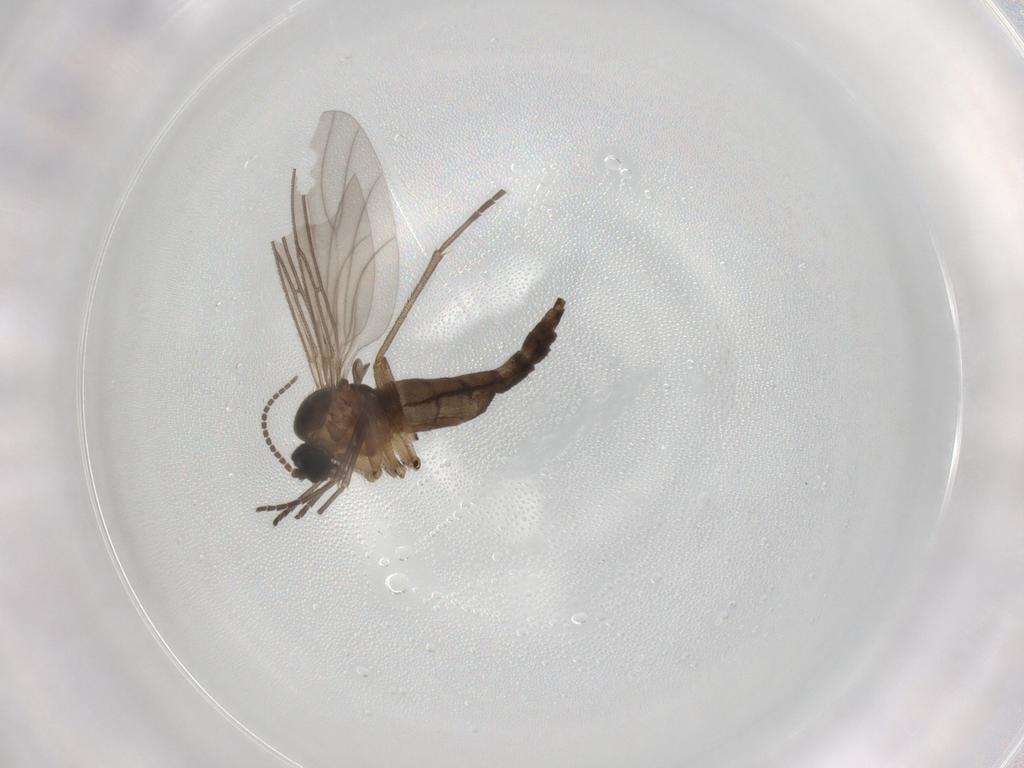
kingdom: Animalia
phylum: Arthropoda
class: Insecta
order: Diptera
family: Sciaridae
